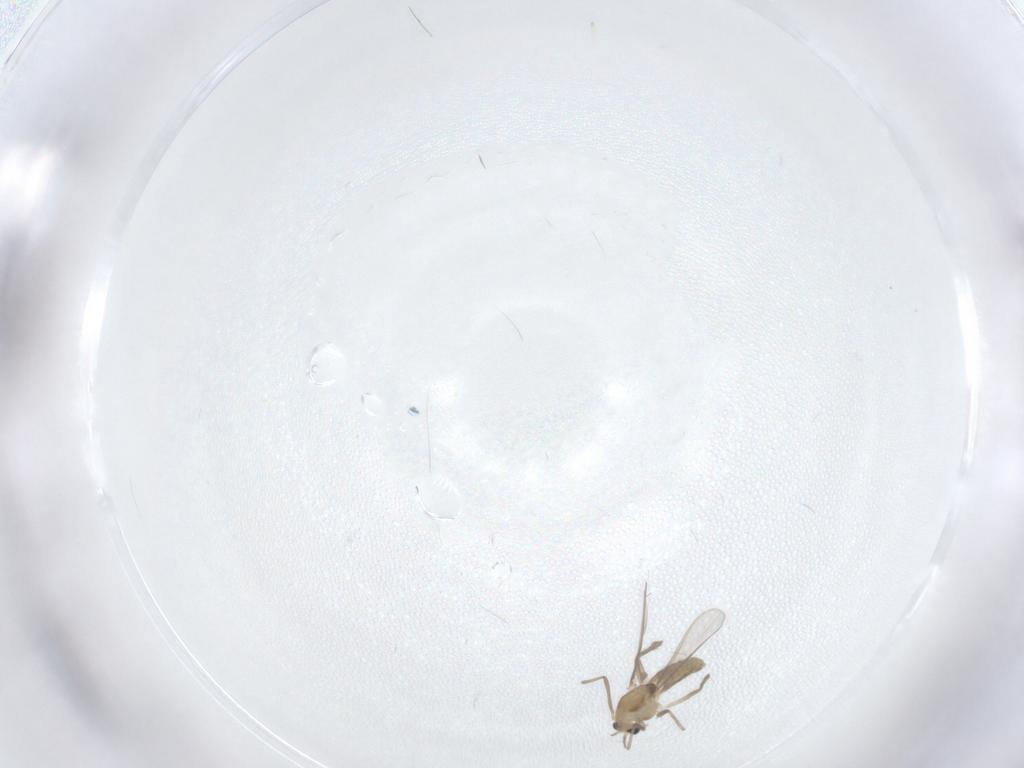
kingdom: Animalia
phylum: Arthropoda
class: Insecta
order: Diptera
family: Chironomidae
